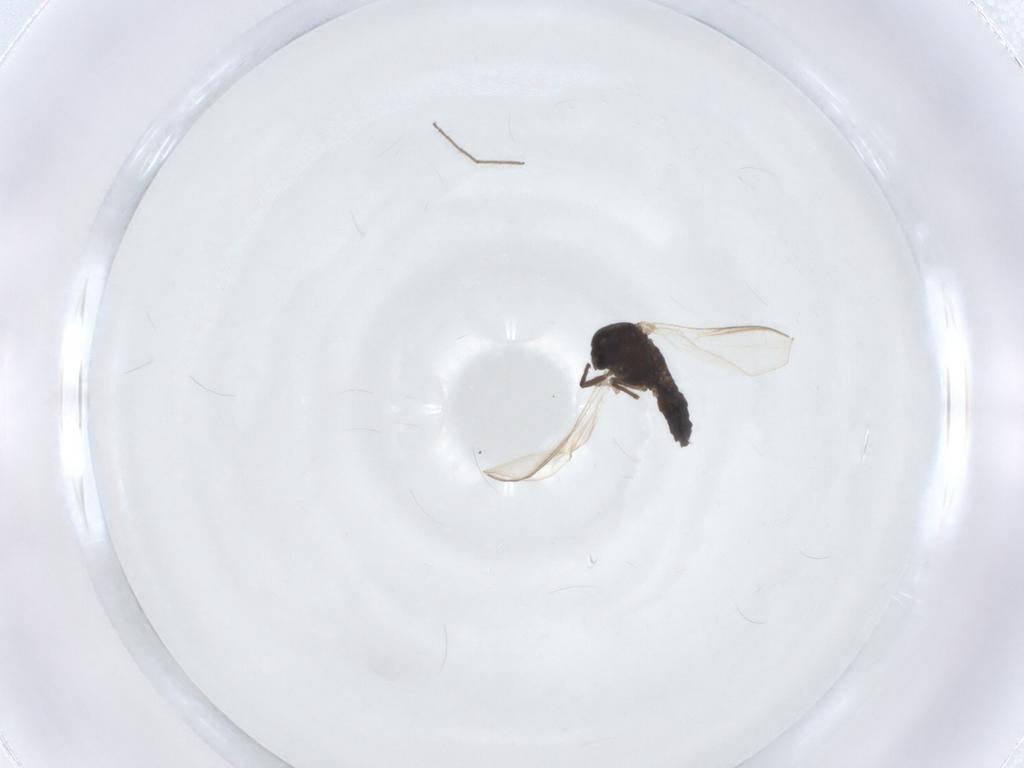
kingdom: Animalia
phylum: Arthropoda
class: Insecta
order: Diptera
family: Chironomidae
